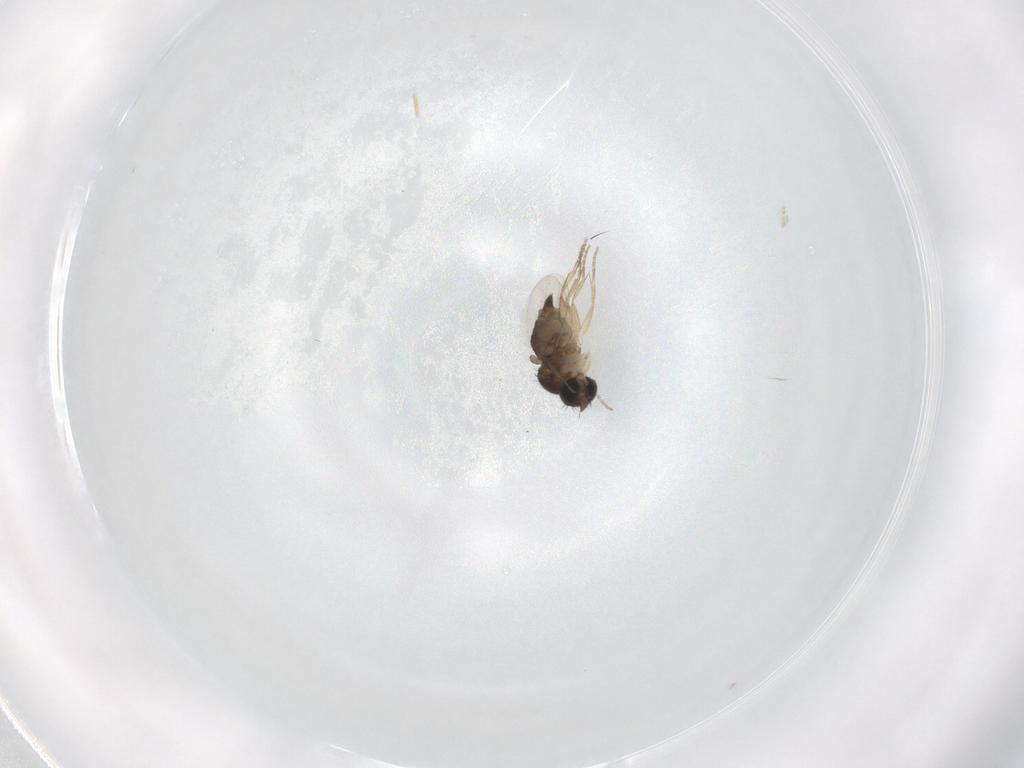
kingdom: Animalia
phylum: Arthropoda
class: Insecta
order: Diptera
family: Phoridae
